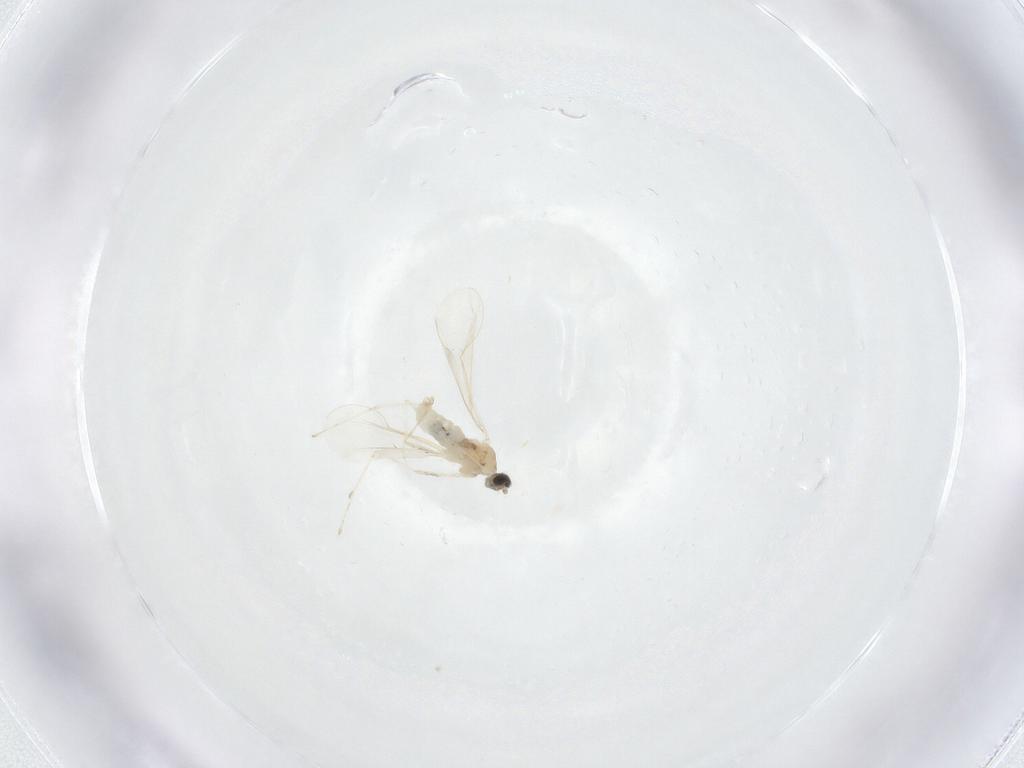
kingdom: Animalia
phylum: Arthropoda
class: Insecta
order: Diptera
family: Cecidomyiidae
